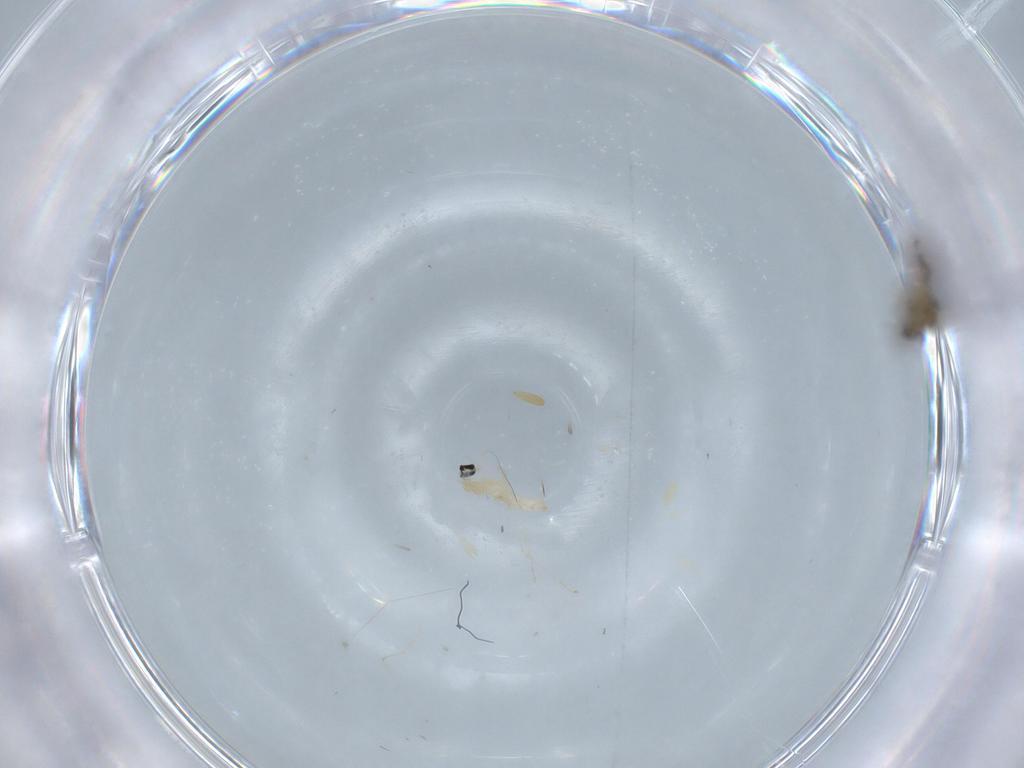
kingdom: Animalia
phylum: Arthropoda
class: Insecta
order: Diptera
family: Chironomidae
